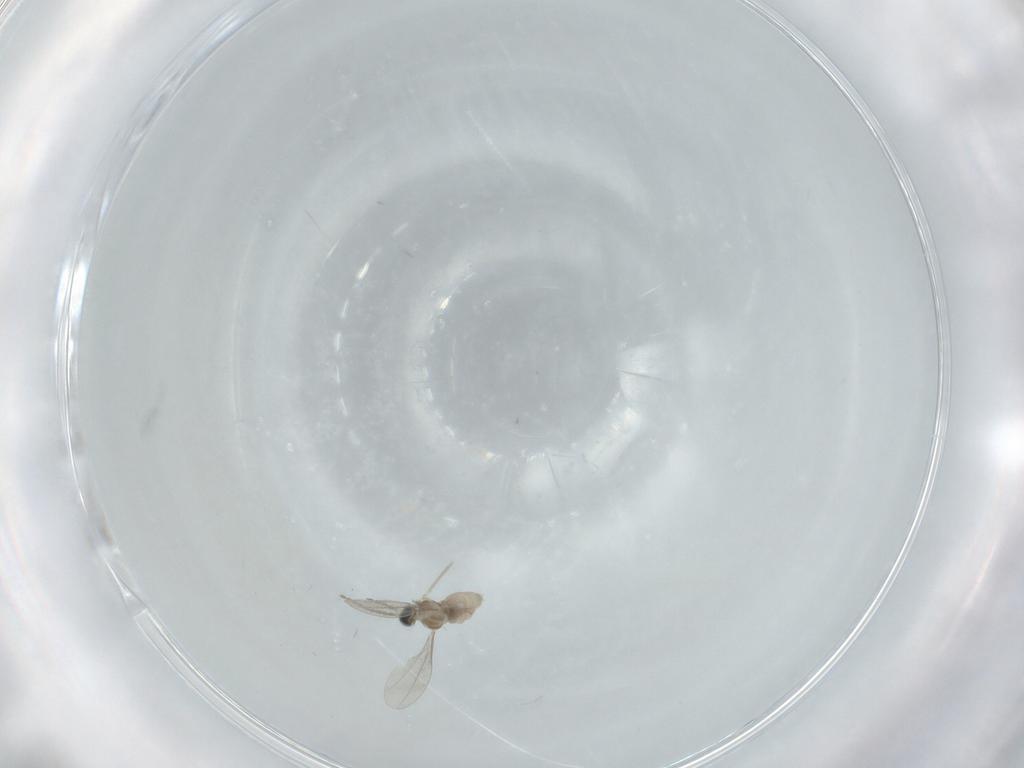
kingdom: Animalia
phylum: Arthropoda
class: Insecta
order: Diptera
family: Cecidomyiidae
